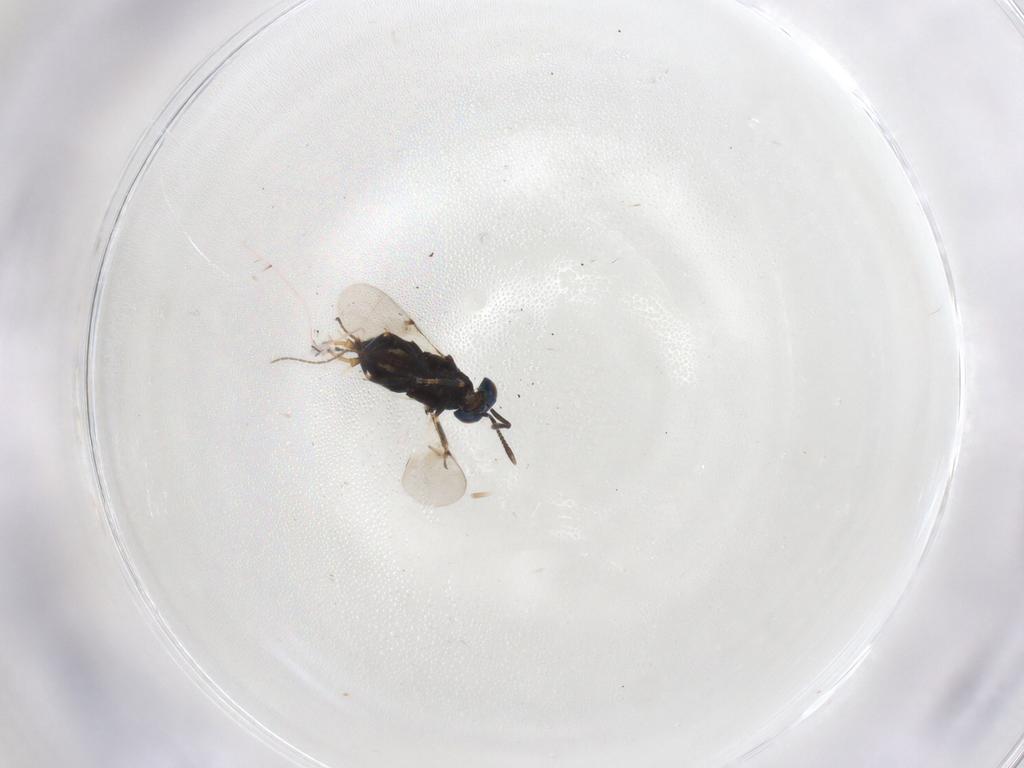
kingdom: Animalia
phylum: Arthropoda
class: Insecta
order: Hymenoptera
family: Encyrtidae
